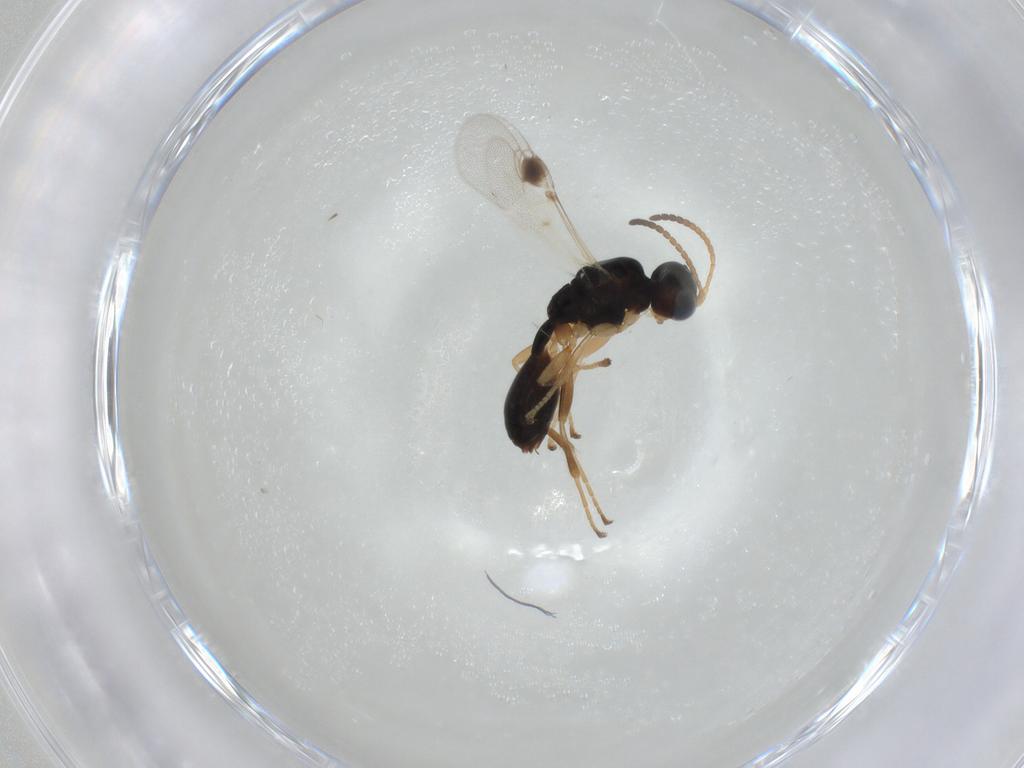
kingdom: Animalia
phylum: Arthropoda
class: Insecta
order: Hymenoptera
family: Braconidae
